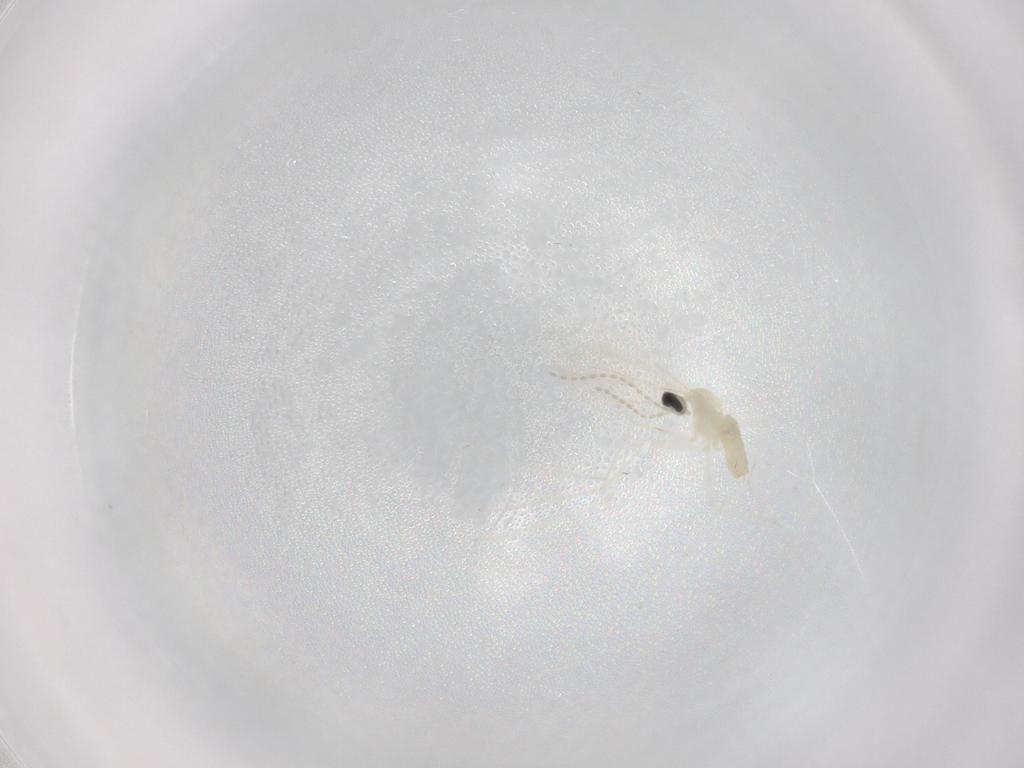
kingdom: Animalia
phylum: Arthropoda
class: Insecta
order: Diptera
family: Cecidomyiidae
